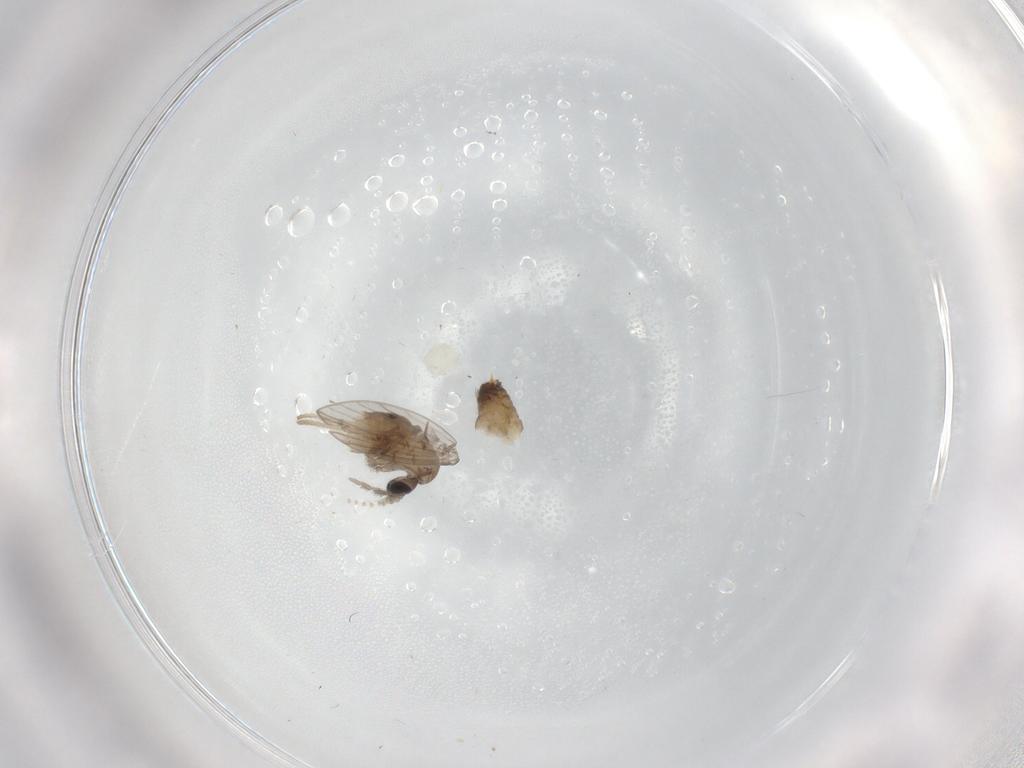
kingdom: Animalia
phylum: Arthropoda
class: Insecta
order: Diptera
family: Psychodidae
